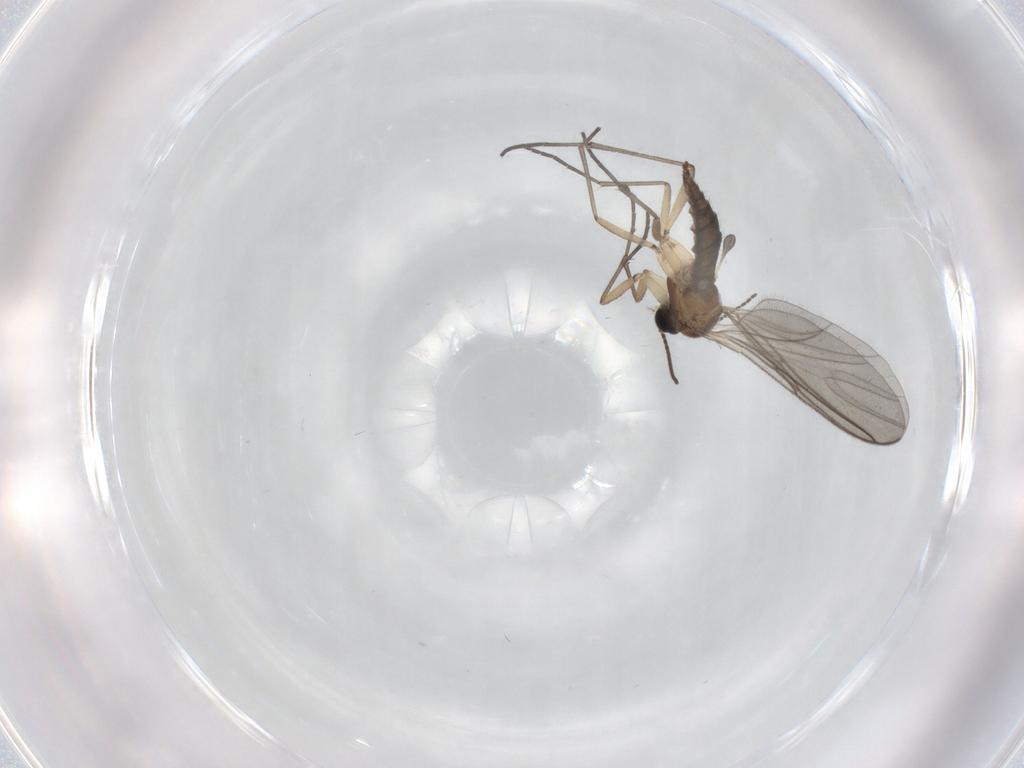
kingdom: Animalia
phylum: Arthropoda
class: Insecta
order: Diptera
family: Sciaridae
